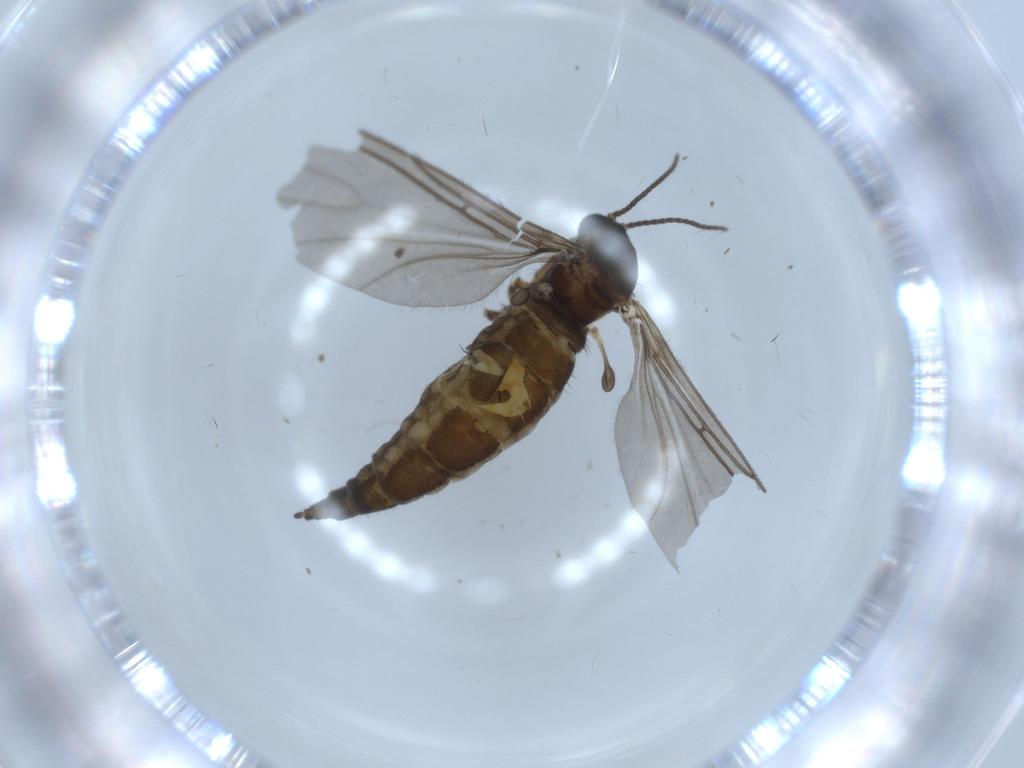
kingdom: Animalia
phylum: Arthropoda
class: Insecta
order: Diptera
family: Sciaridae
